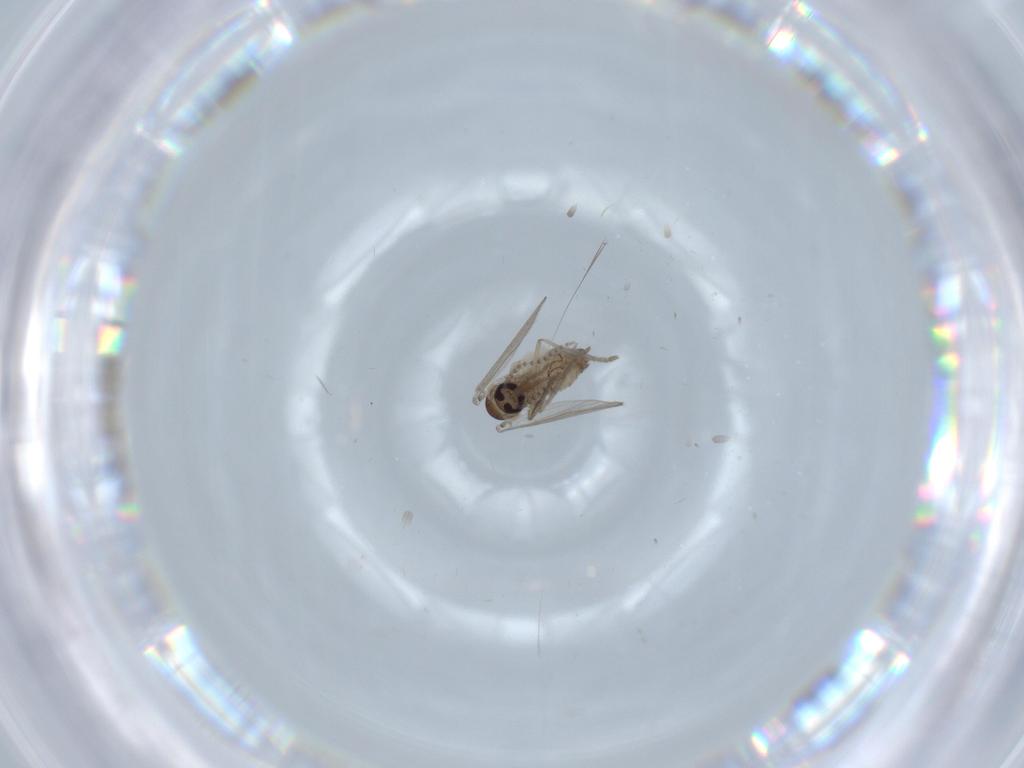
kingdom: Animalia
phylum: Arthropoda
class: Insecta
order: Diptera
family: Psychodidae
